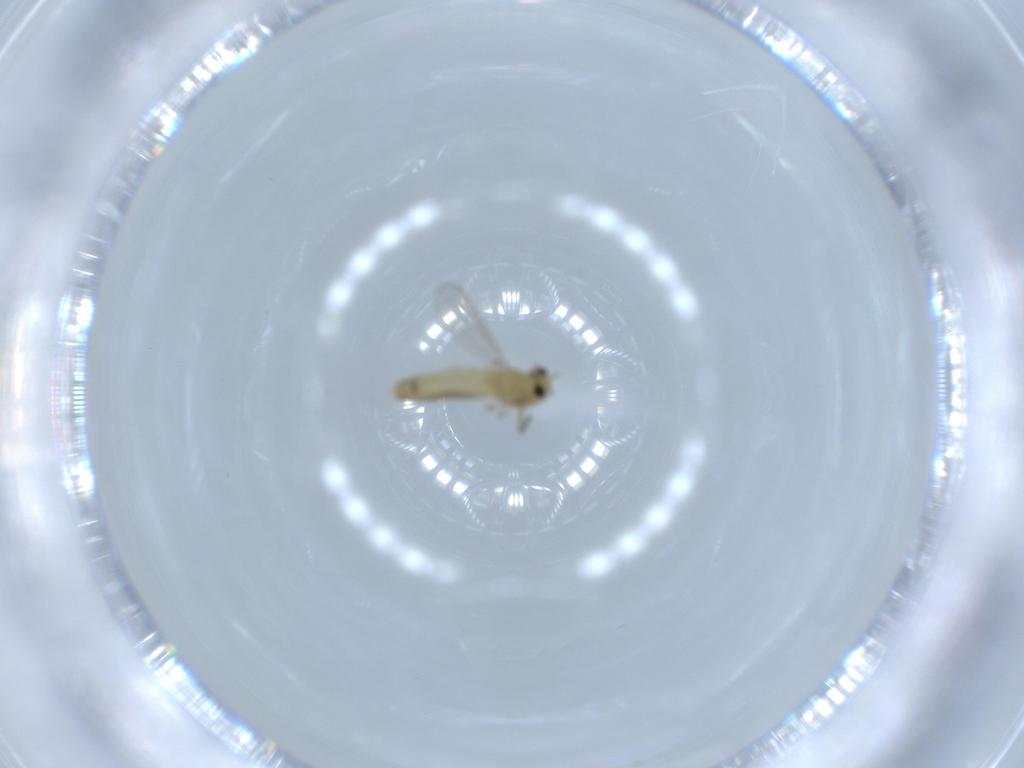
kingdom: Animalia
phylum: Arthropoda
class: Insecta
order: Diptera
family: Chironomidae
